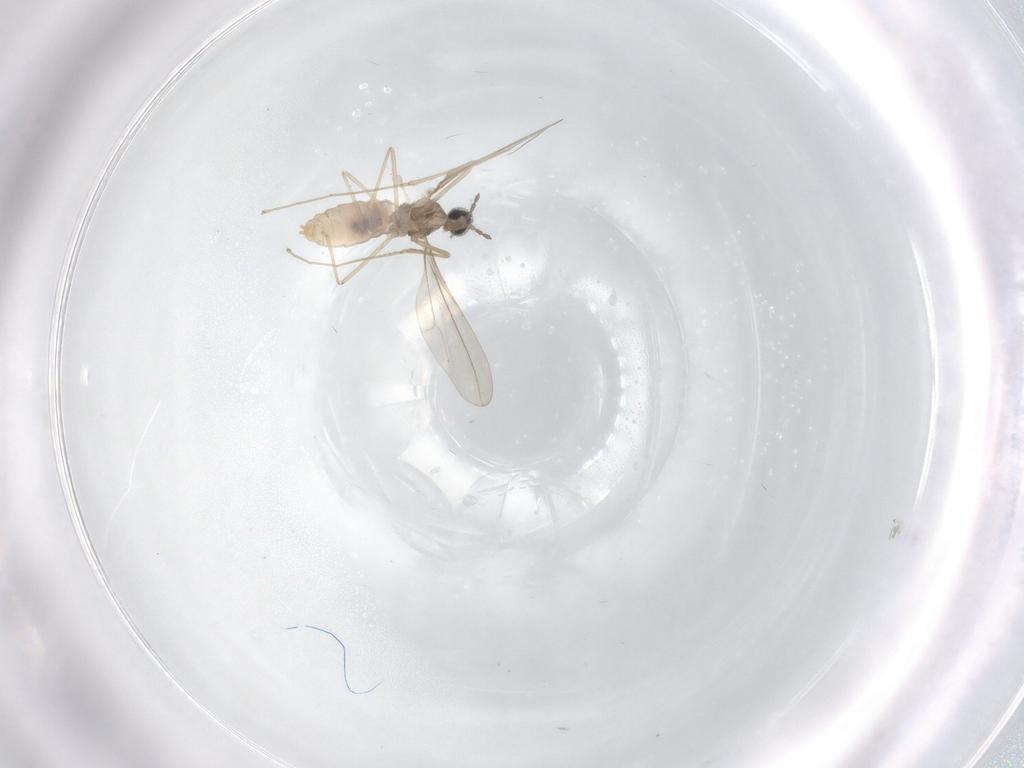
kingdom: Animalia
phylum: Arthropoda
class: Insecta
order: Diptera
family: Cecidomyiidae
